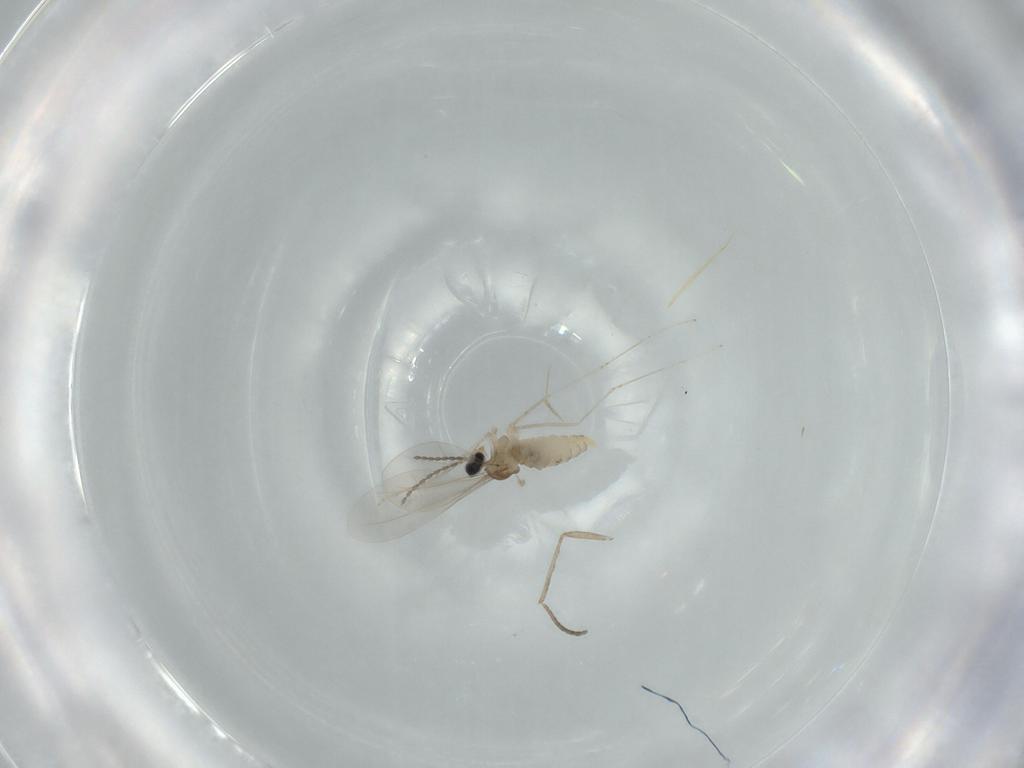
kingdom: Animalia
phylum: Arthropoda
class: Insecta
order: Diptera
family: Cecidomyiidae
